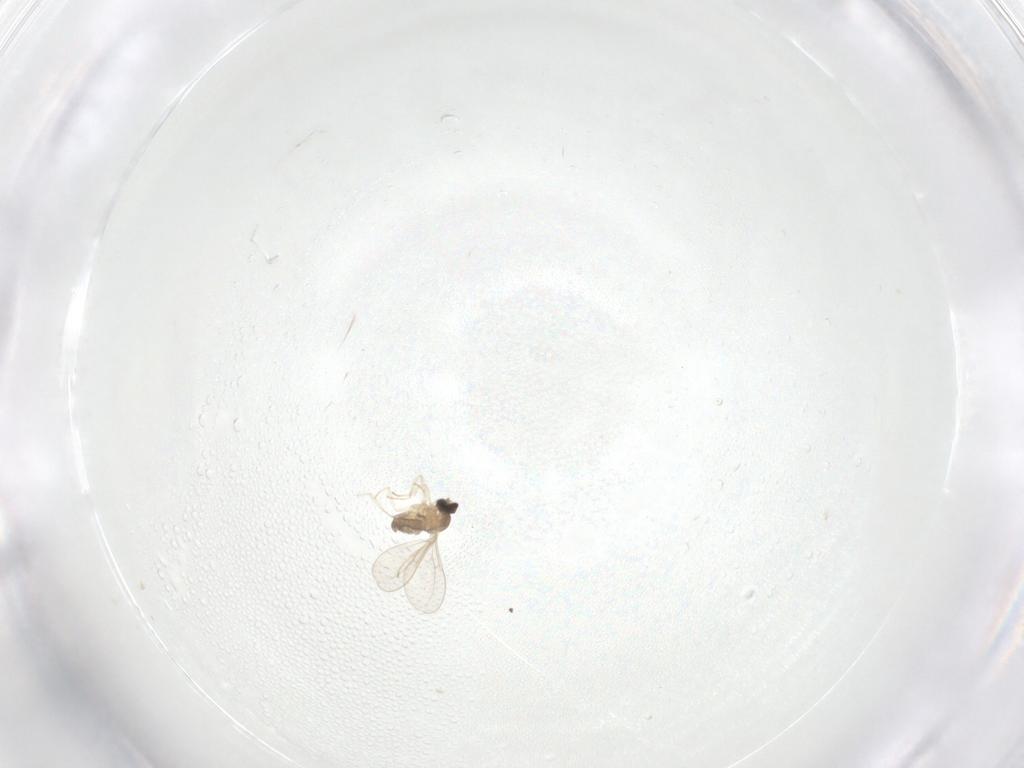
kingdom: Animalia
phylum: Arthropoda
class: Insecta
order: Diptera
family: Cecidomyiidae
